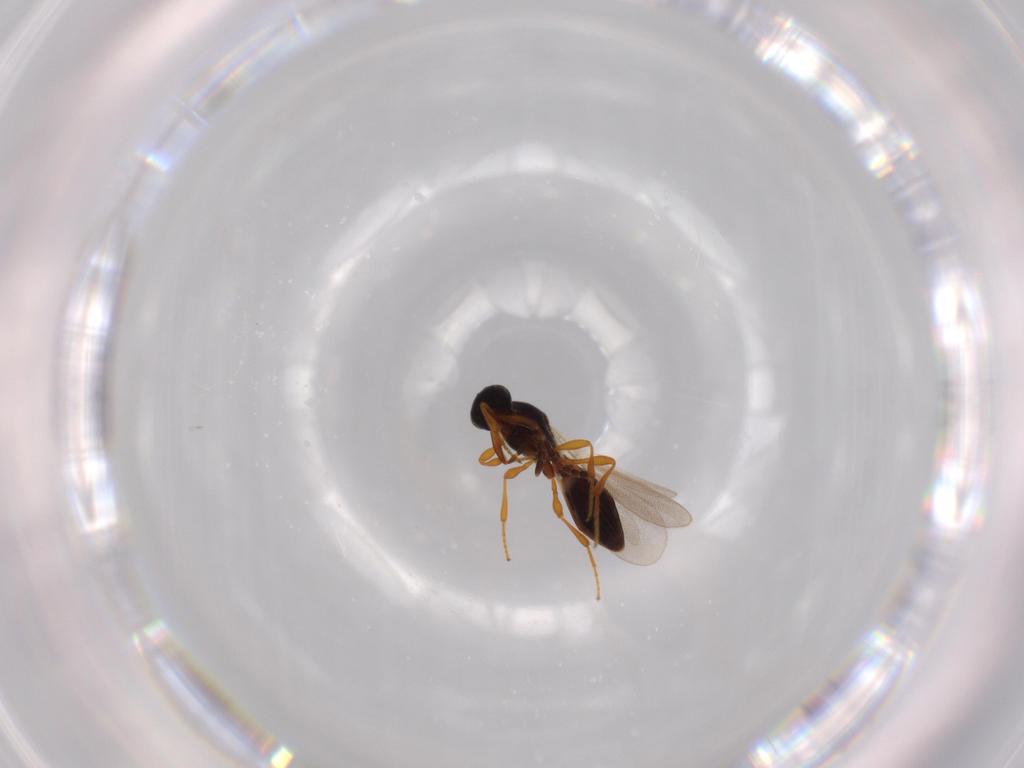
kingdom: Animalia
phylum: Arthropoda
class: Insecta
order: Hymenoptera
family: Platygastridae
